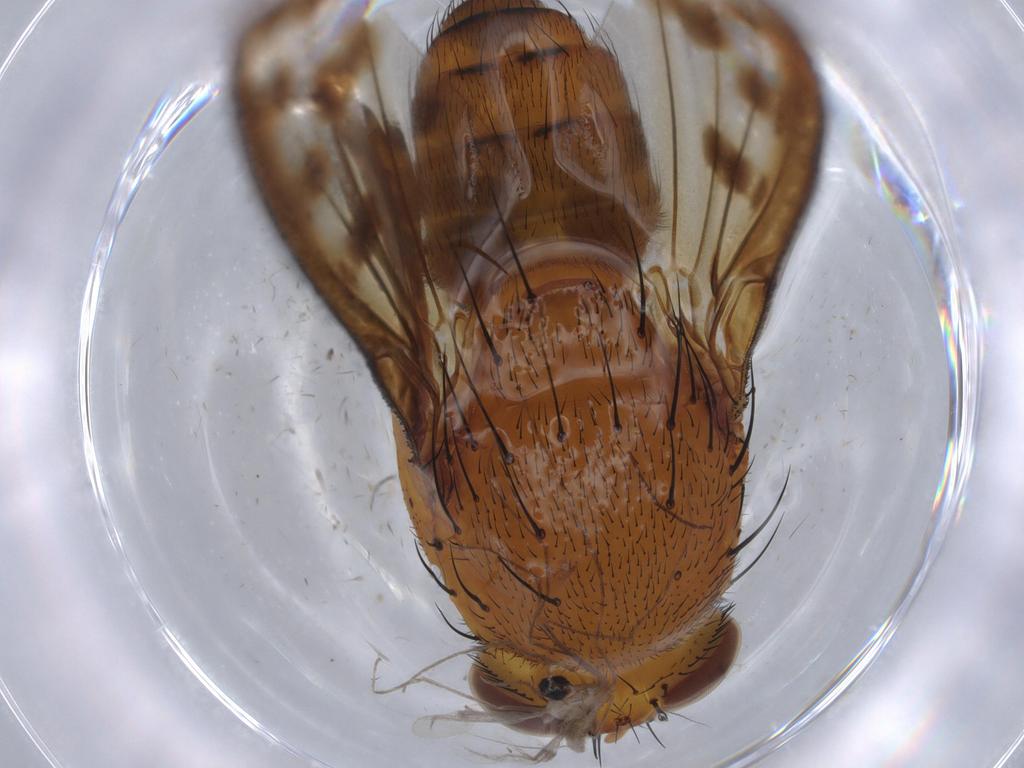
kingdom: Animalia
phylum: Arthropoda
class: Insecta
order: Diptera
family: Cecidomyiidae
